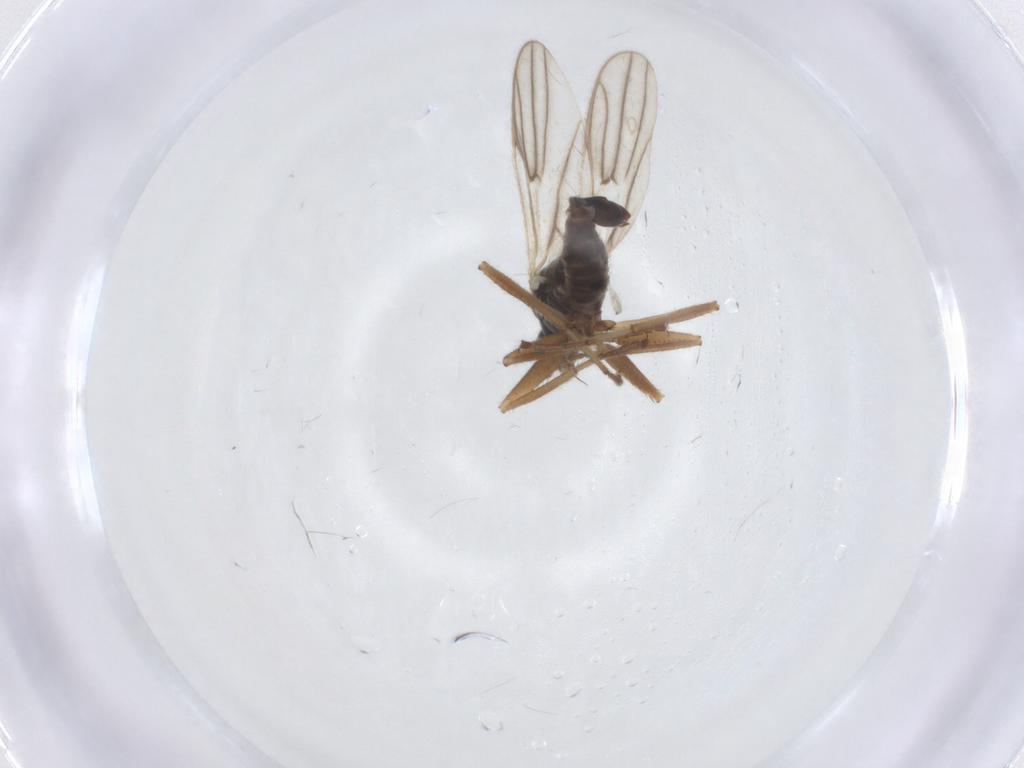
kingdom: Animalia
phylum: Arthropoda
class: Insecta
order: Diptera
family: Hybotidae
